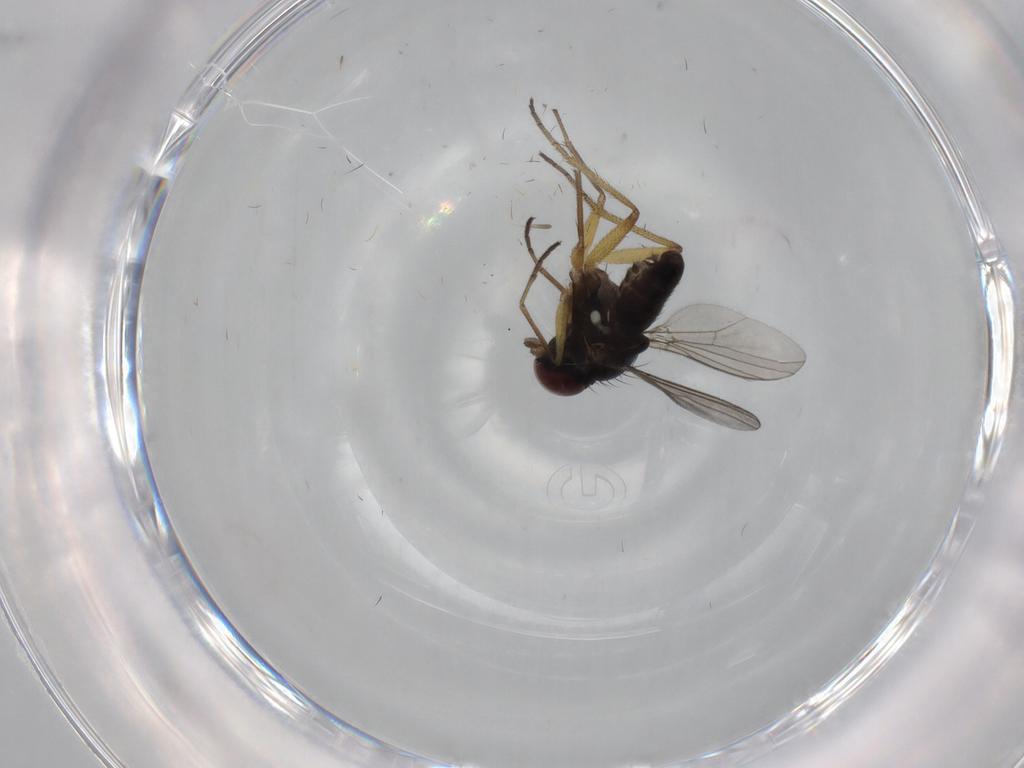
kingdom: Animalia
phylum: Arthropoda
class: Insecta
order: Diptera
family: Dolichopodidae
